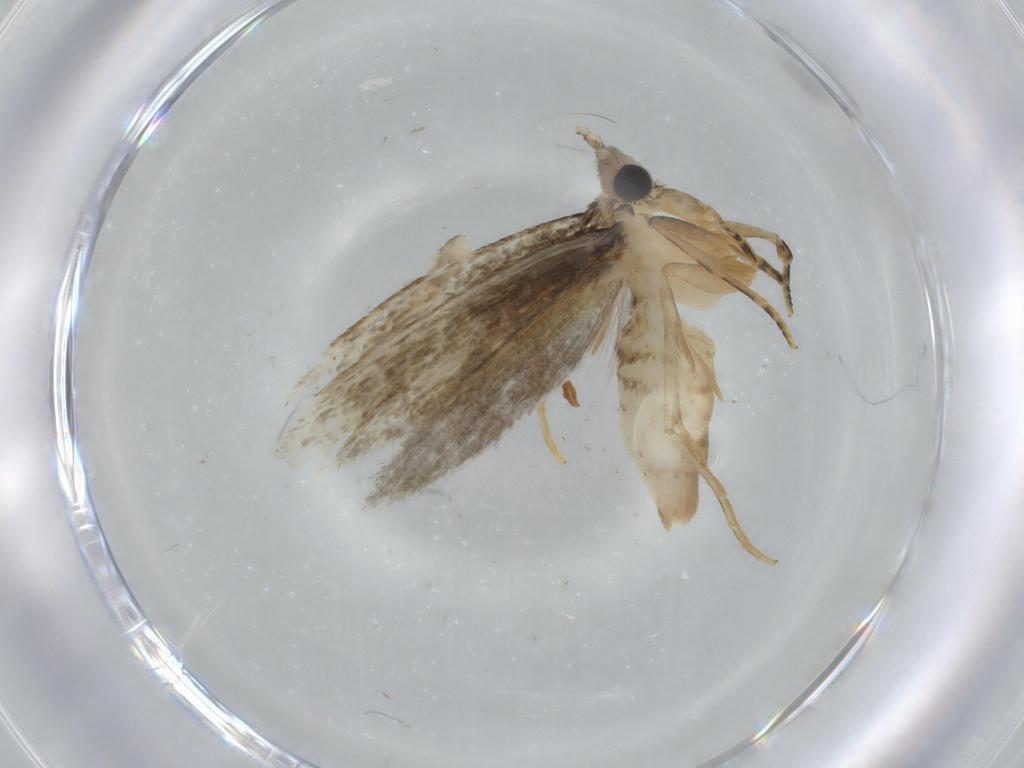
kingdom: Animalia
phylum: Arthropoda
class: Insecta
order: Lepidoptera
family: Tineidae
